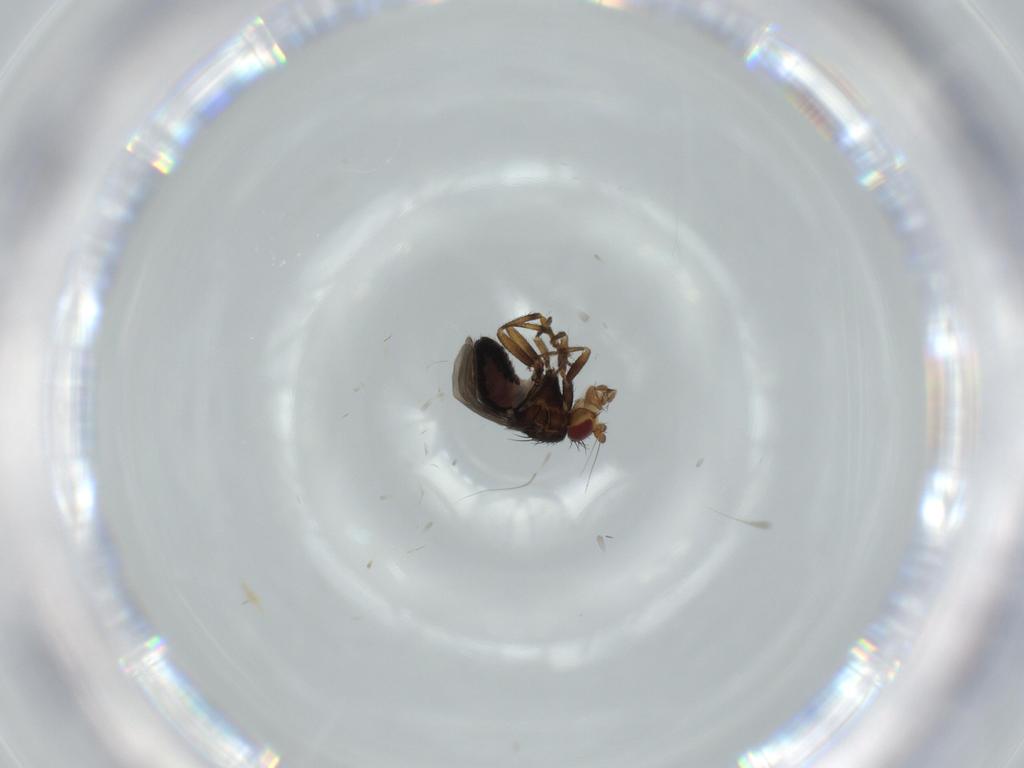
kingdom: Animalia
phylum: Arthropoda
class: Insecta
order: Diptera
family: Sphaeroceridae
